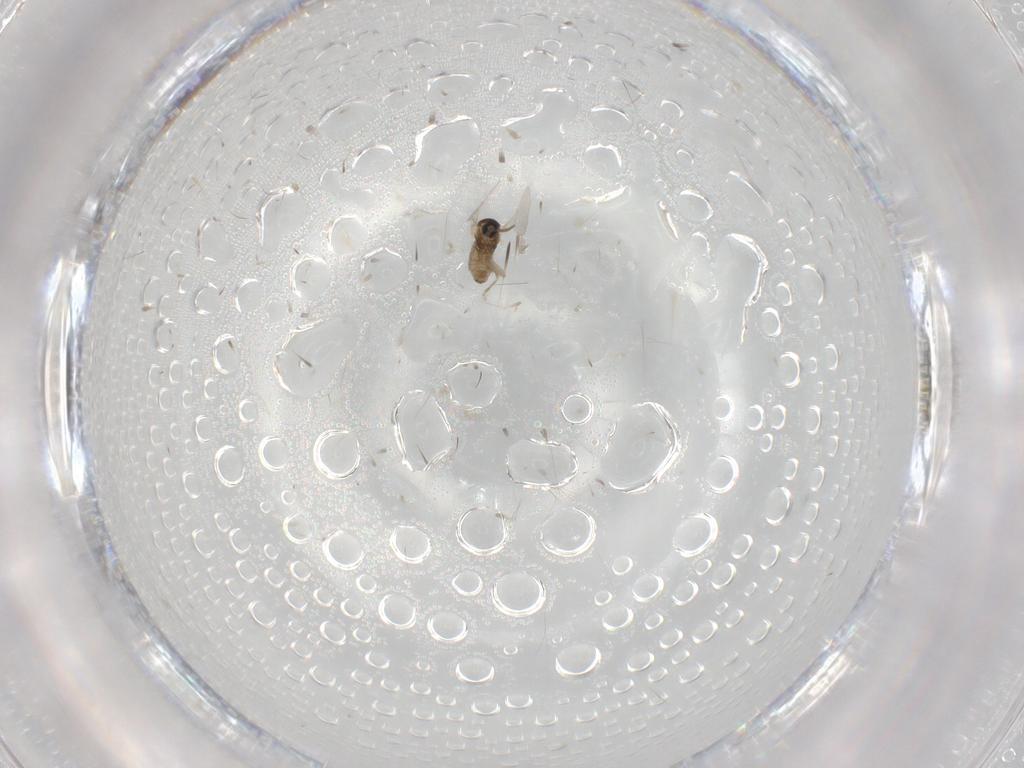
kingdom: Animalia
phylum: Arthropoda
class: Insecta
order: Diptera
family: Cecidomyiidae
